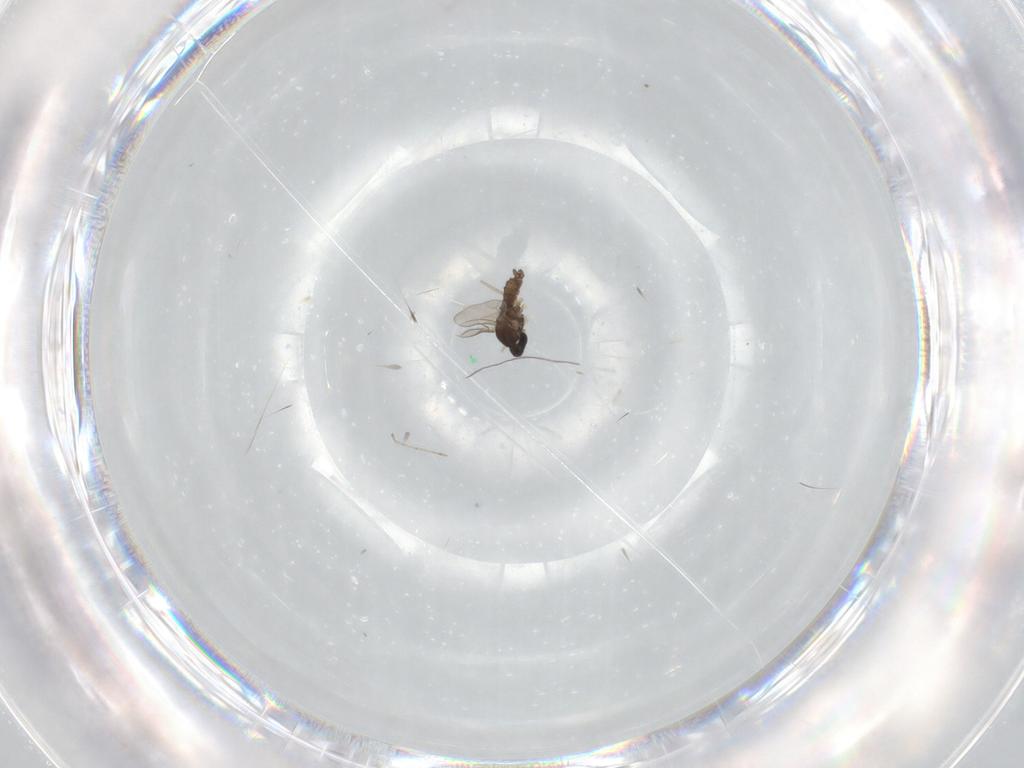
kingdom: Animalia
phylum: Arthropoda
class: Insecta
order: Diptera
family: Cecidomyiidae
